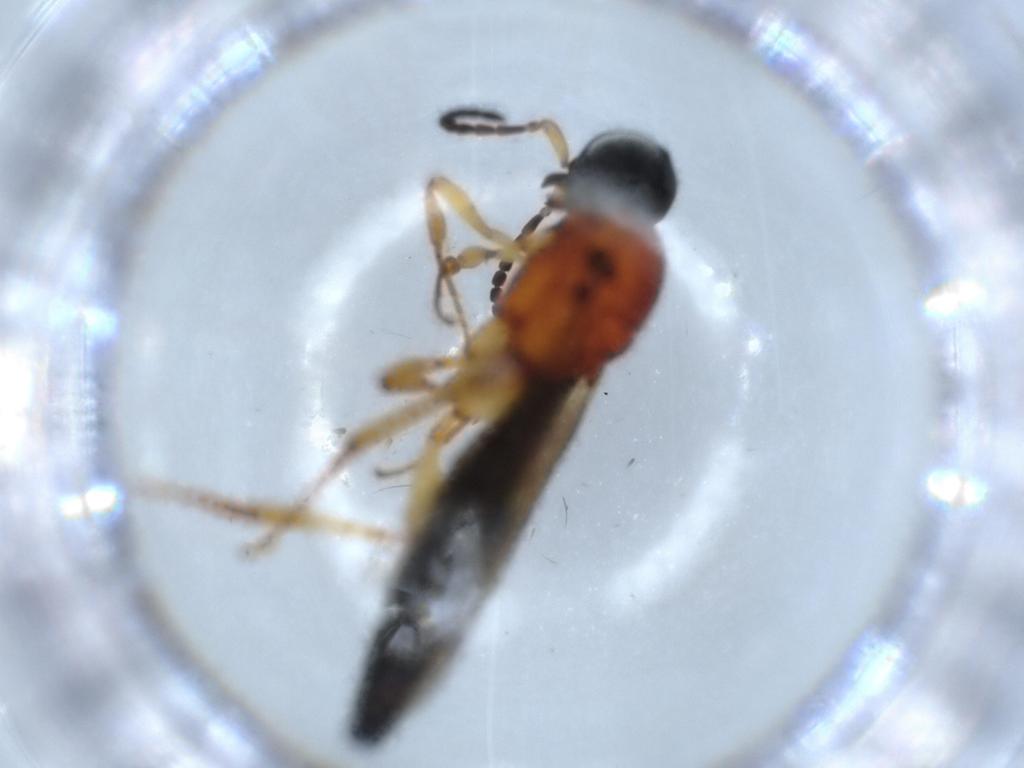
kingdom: Animalia
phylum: Arthropoda
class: Insecta
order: Hymenoptera
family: Scelionidae
